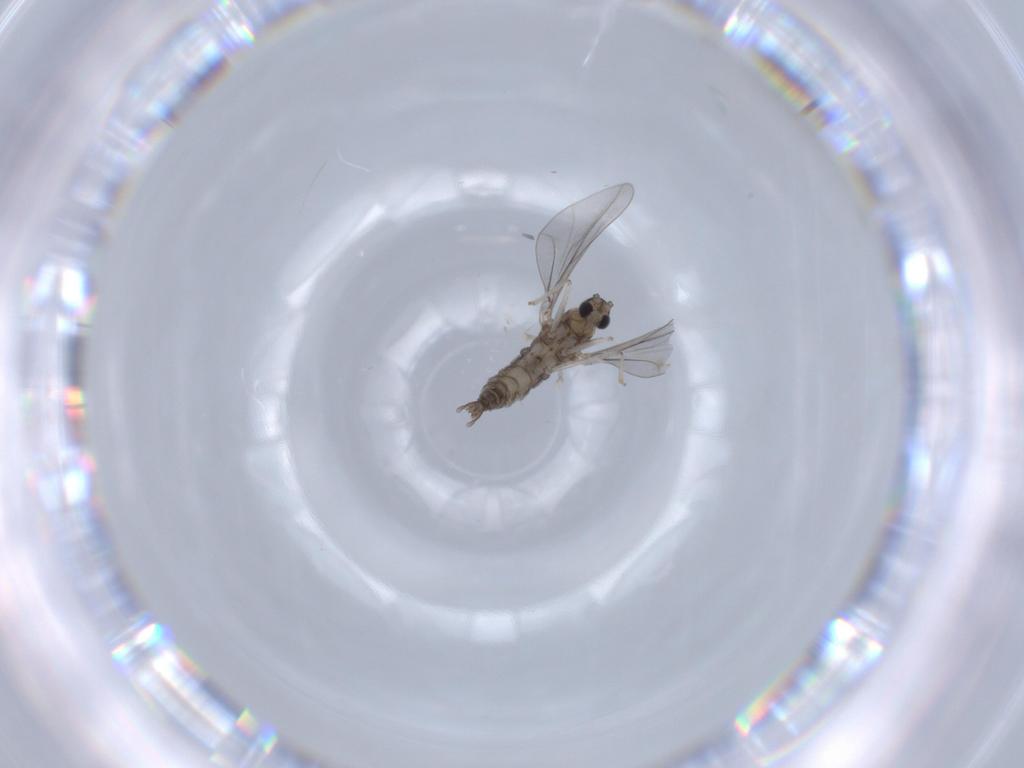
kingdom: Animalia
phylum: Arthropoda
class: Insecta
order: Diptera
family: Cecidomyiidae
